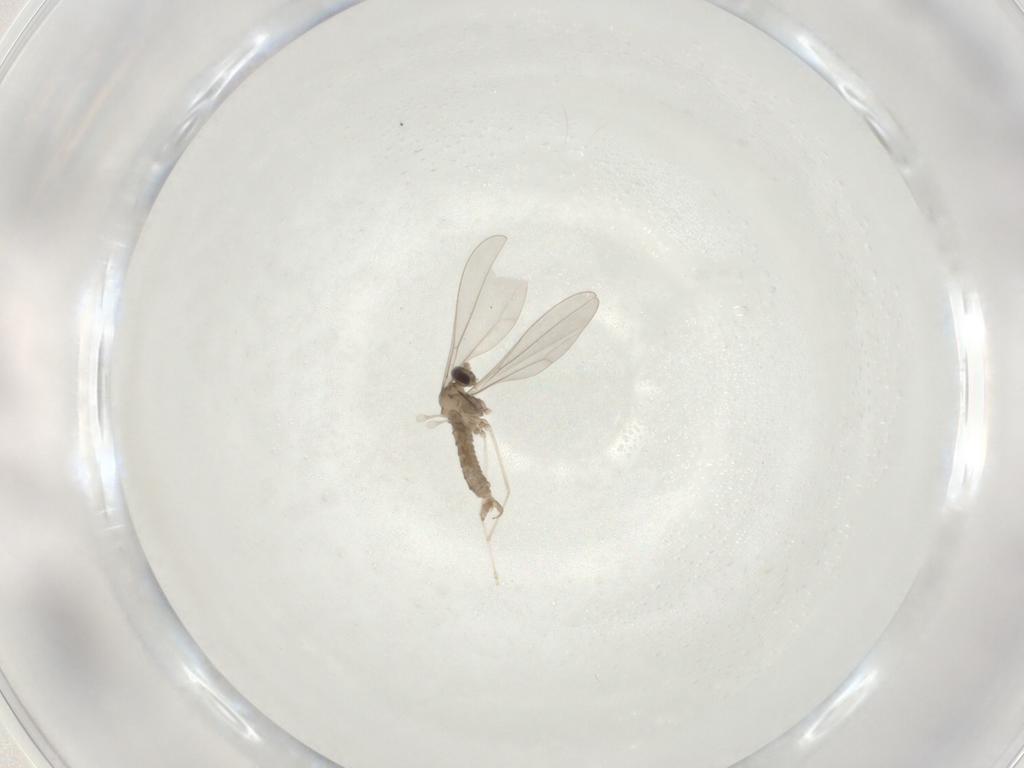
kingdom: Animalia
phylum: Arthropoda
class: Insecta
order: Diptera
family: Cecidomyiidae
